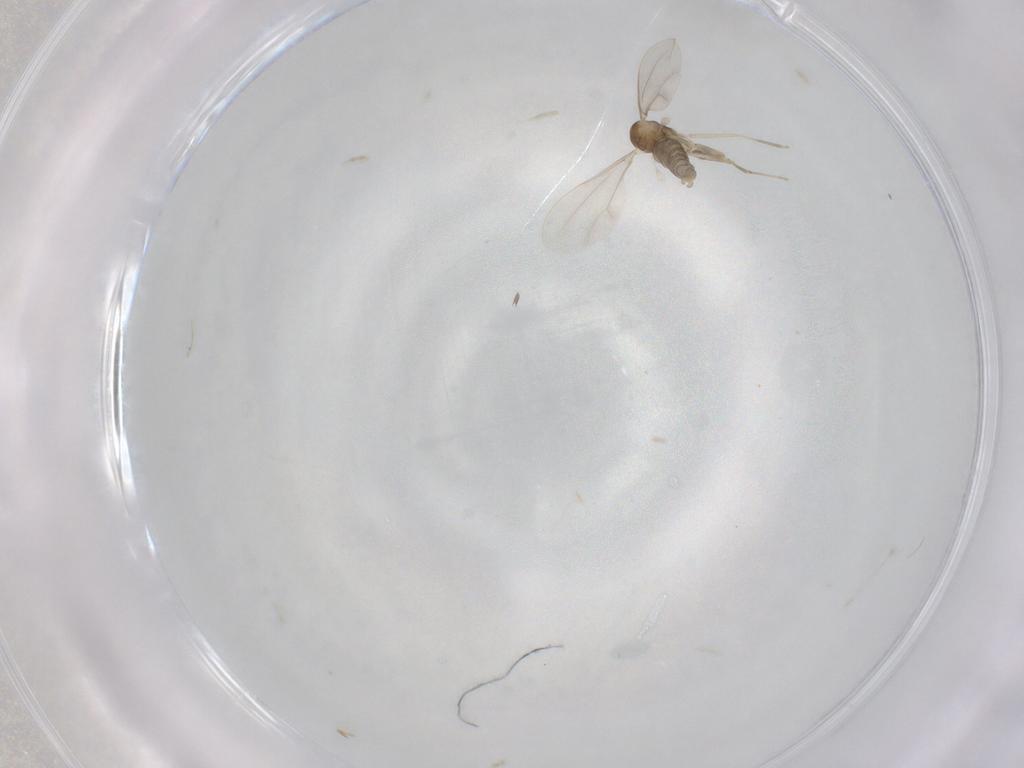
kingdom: Animalia
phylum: Arthropoda
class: Insecta
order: Diptera
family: Cecidomyiidae
